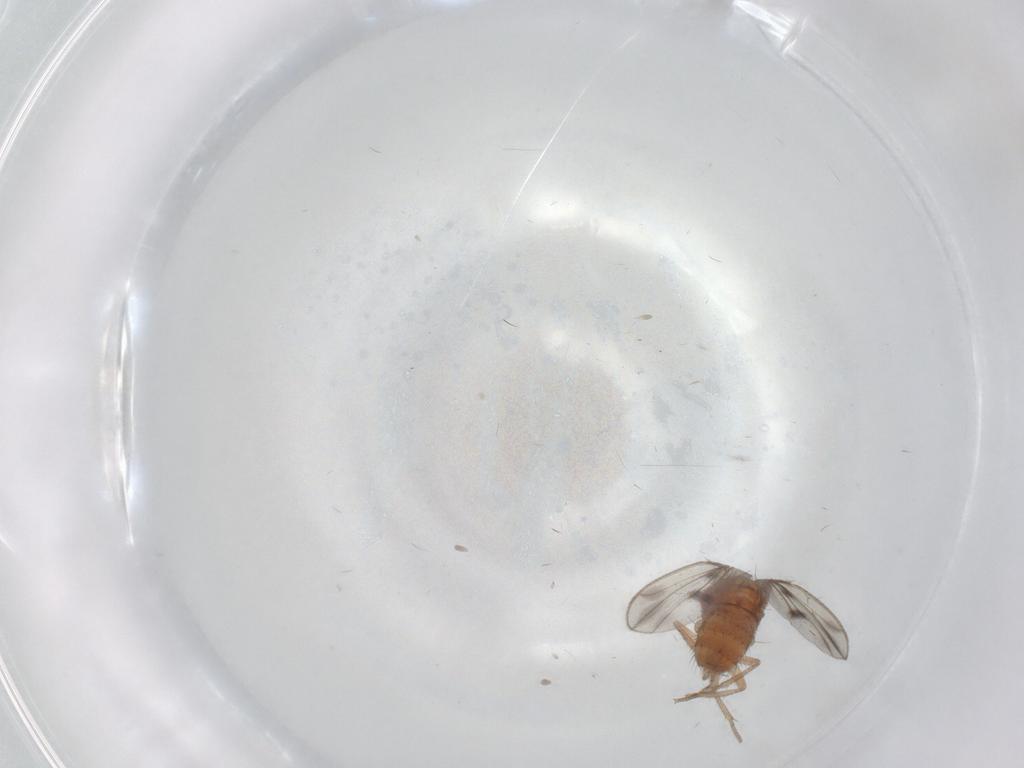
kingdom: Animalia
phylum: Arthropoda
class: Insecta
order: Diptera
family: Drosophilidae
